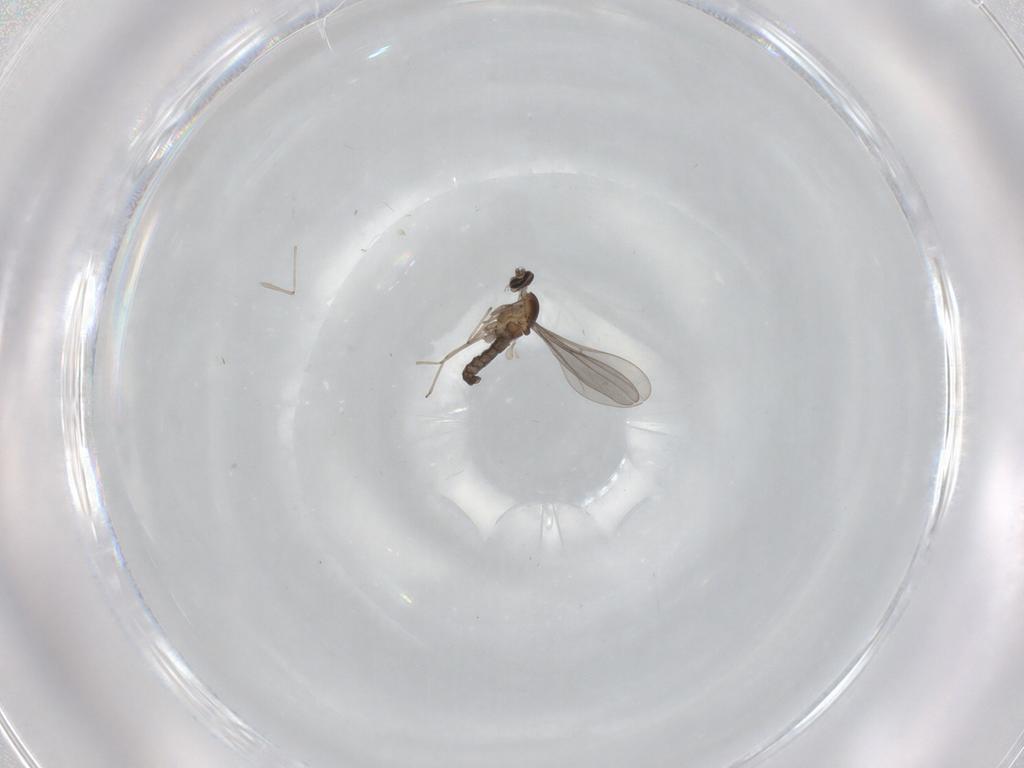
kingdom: Animalia
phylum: Arthropoda
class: Insecta
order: Diptera
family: Cecidomyiidae
